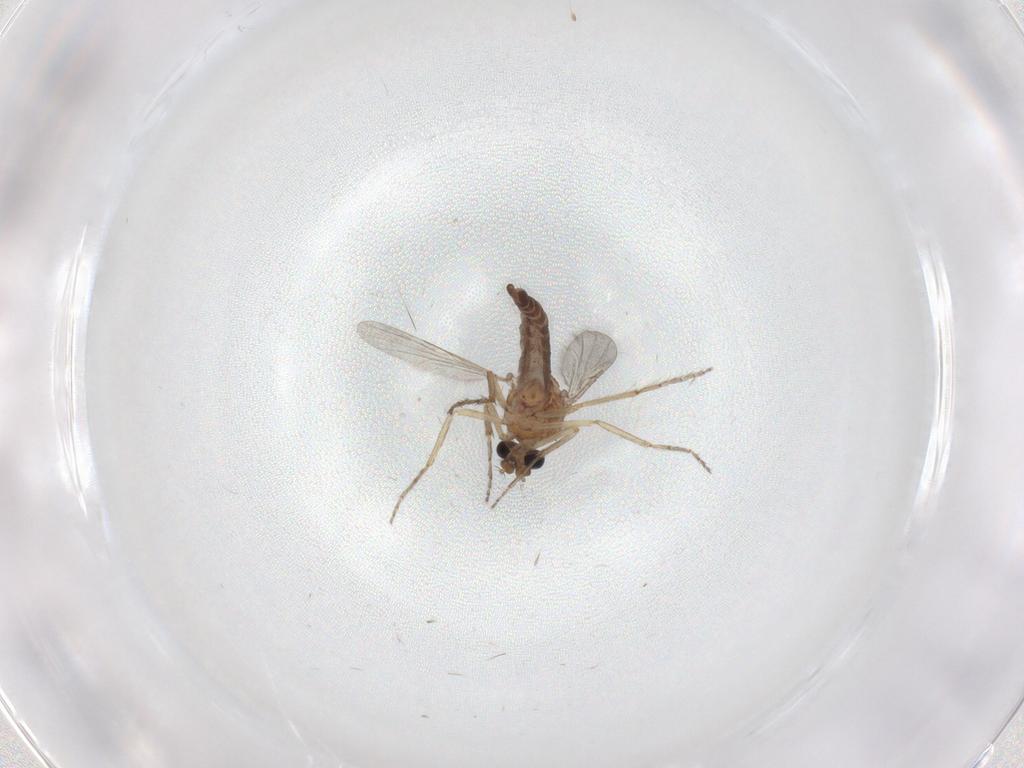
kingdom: Animalia
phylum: Arthropoda
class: Insecta
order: Diptera
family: Ceratopogonidae
